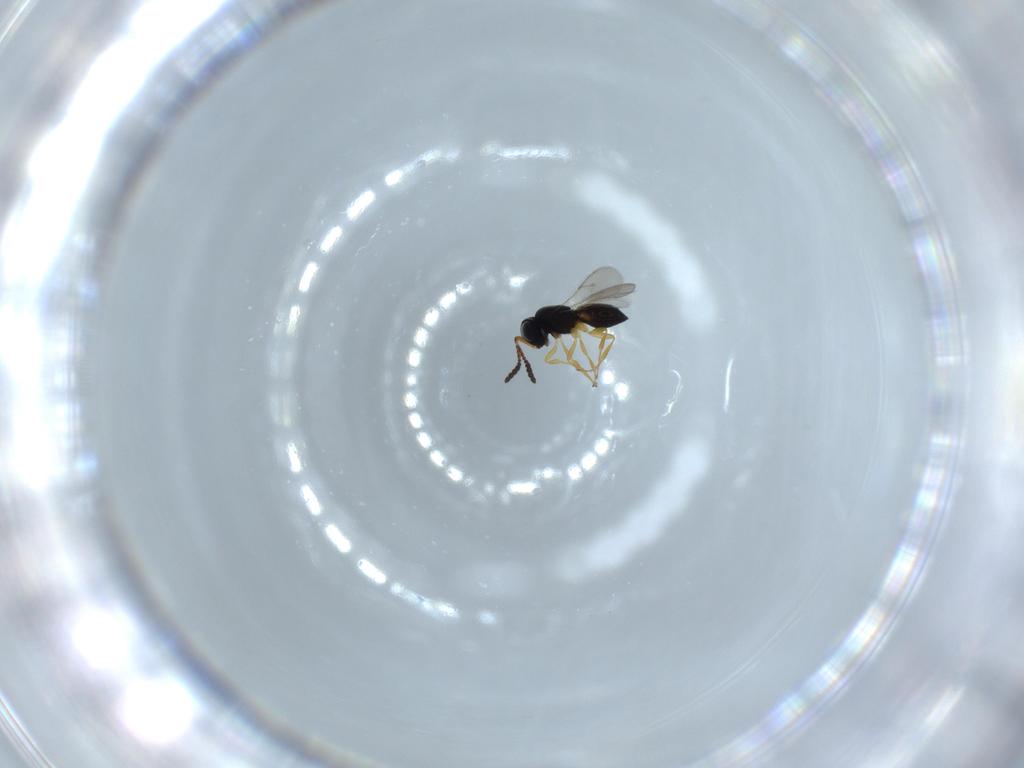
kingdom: Animalia
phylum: Arthropoda
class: Insecta
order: Hymenoptera
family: Scelionidae
